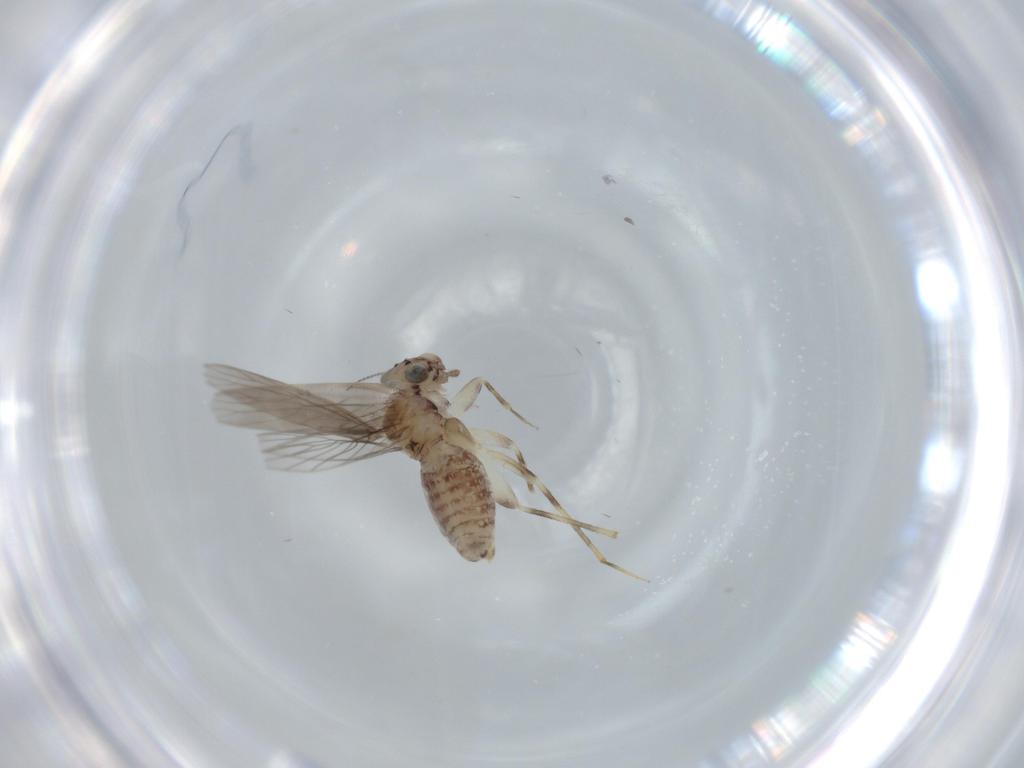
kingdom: Animalia
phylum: Arthropoda
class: Insecta
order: Psocodea
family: Lepidopsocidae
